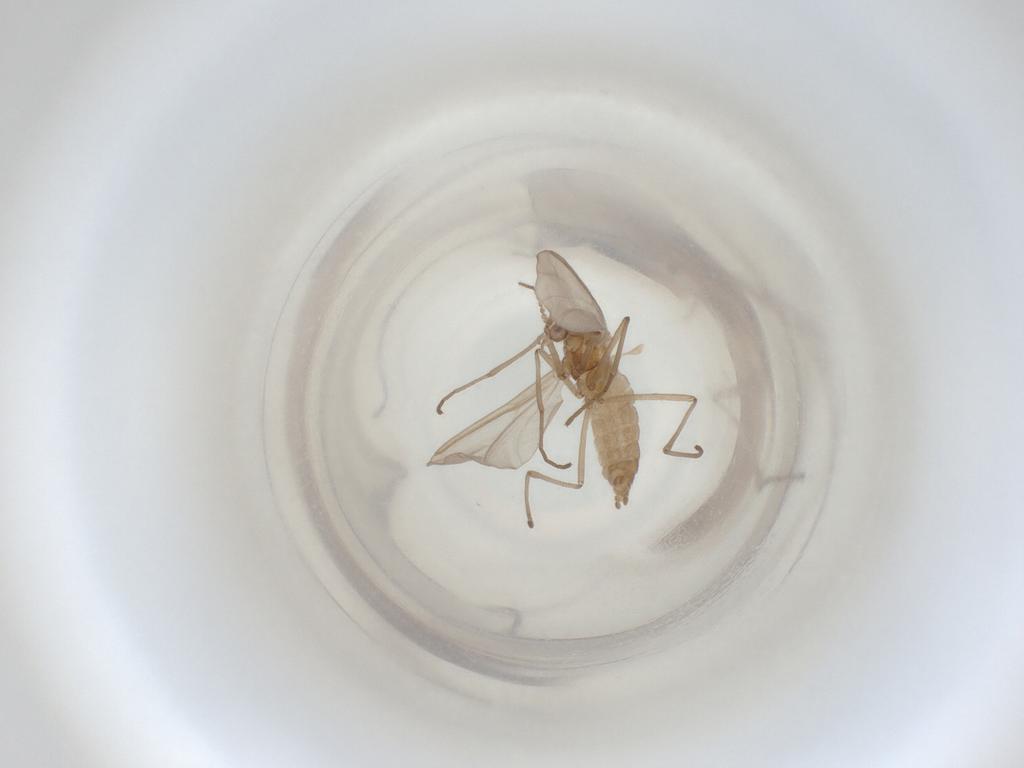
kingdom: Animalia
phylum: Arthropoda
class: Insecta
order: Diptera
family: Cecidomyiidae
